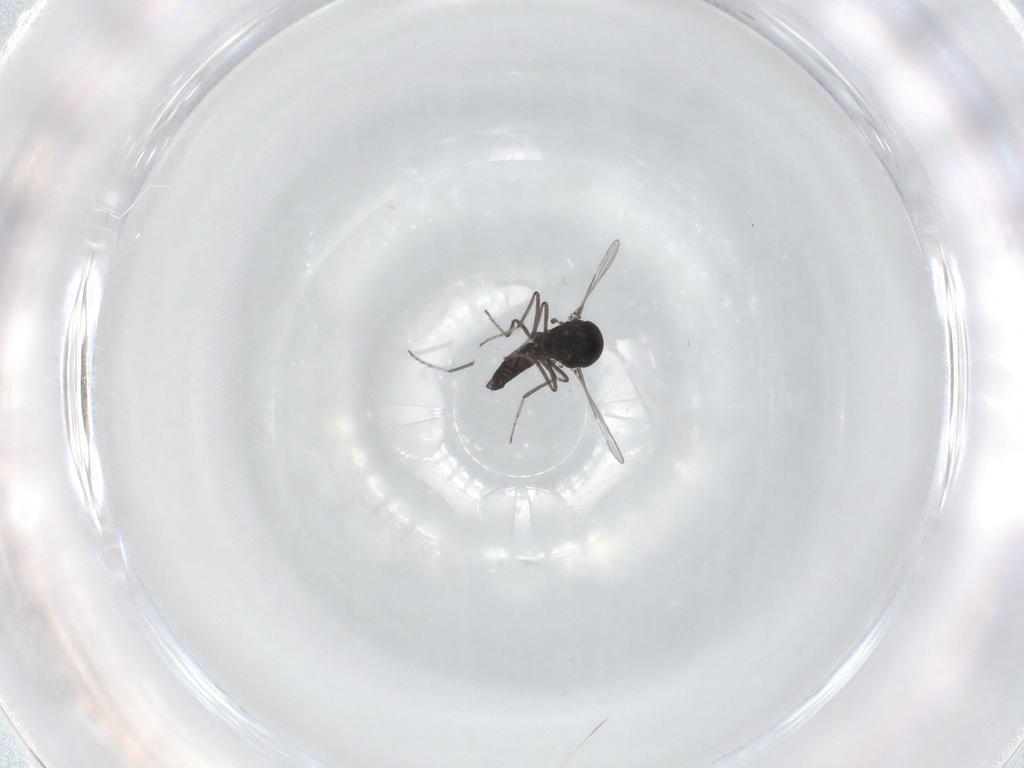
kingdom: Animalia
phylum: Arthropoda
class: Insecta
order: Diptera
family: Ceratopogonidae
